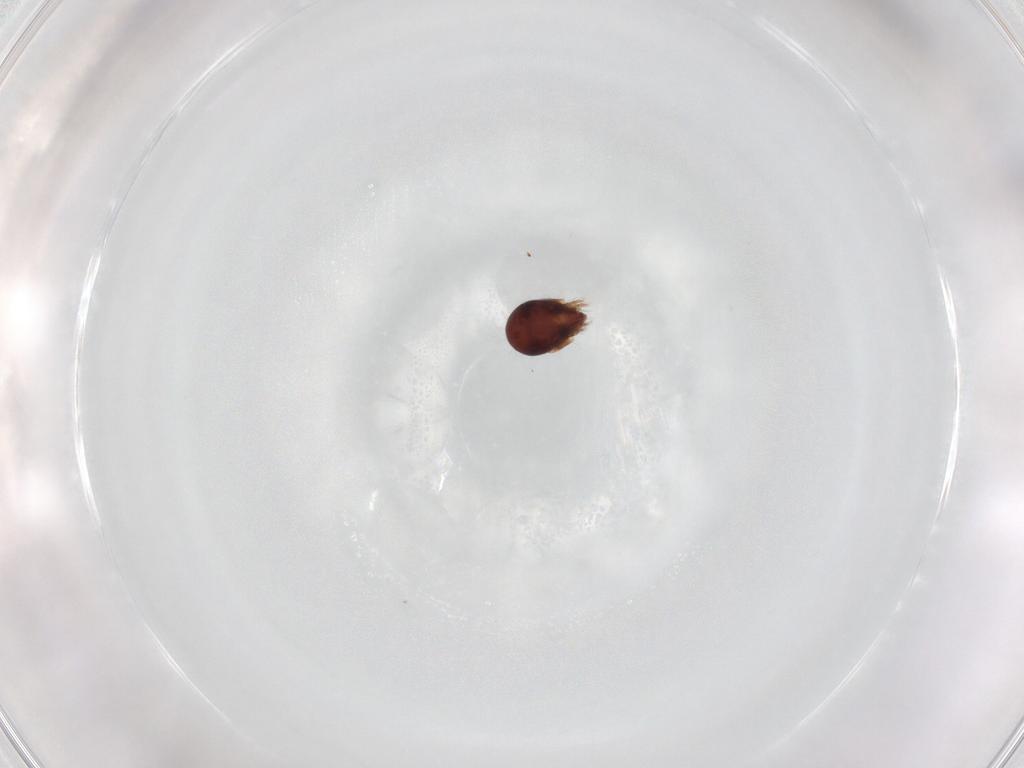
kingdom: Animalia
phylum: Arthropoda
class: Arachnida
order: Sarcoptiformes
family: Humerobatidae
